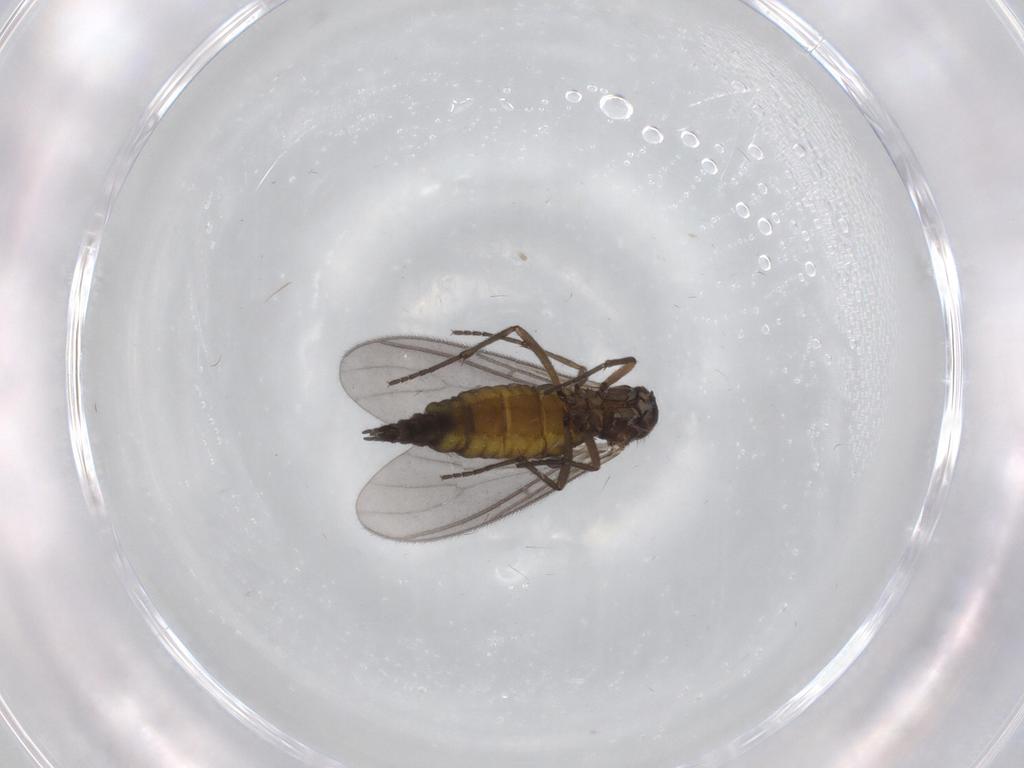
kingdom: Animalia
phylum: Arthropoda
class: Insecta
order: Diptera
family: Sciaridae
